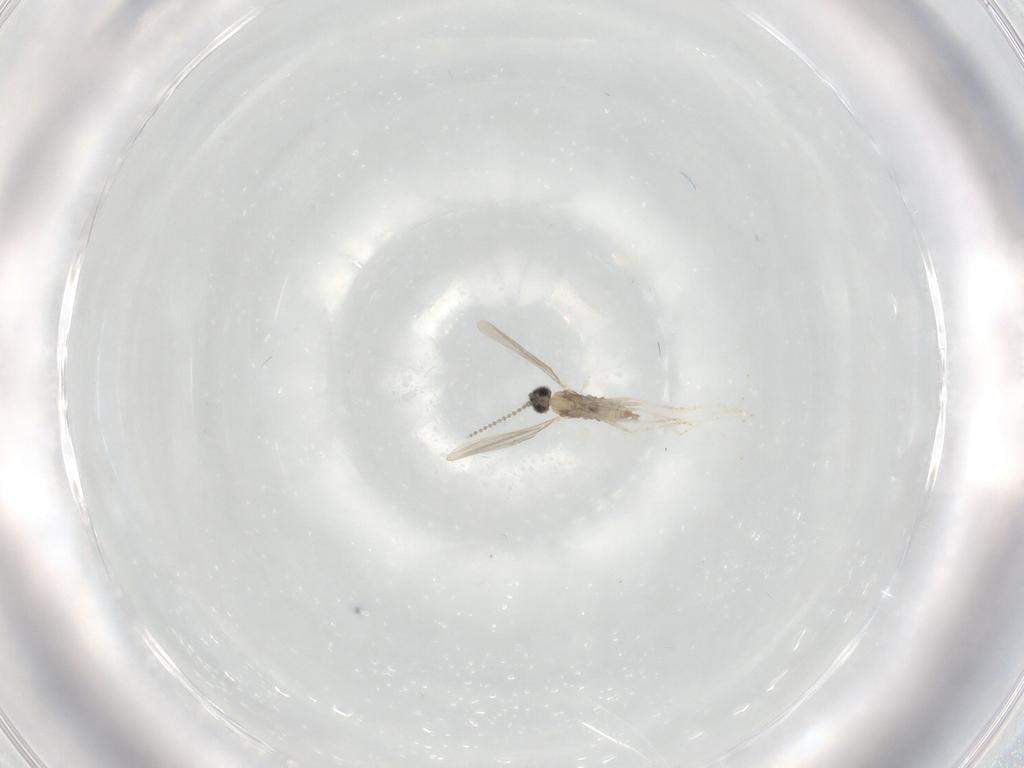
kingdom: Animalia
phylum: Arthropoda
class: Insecta
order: Diptera
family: Cecidomyiidae
